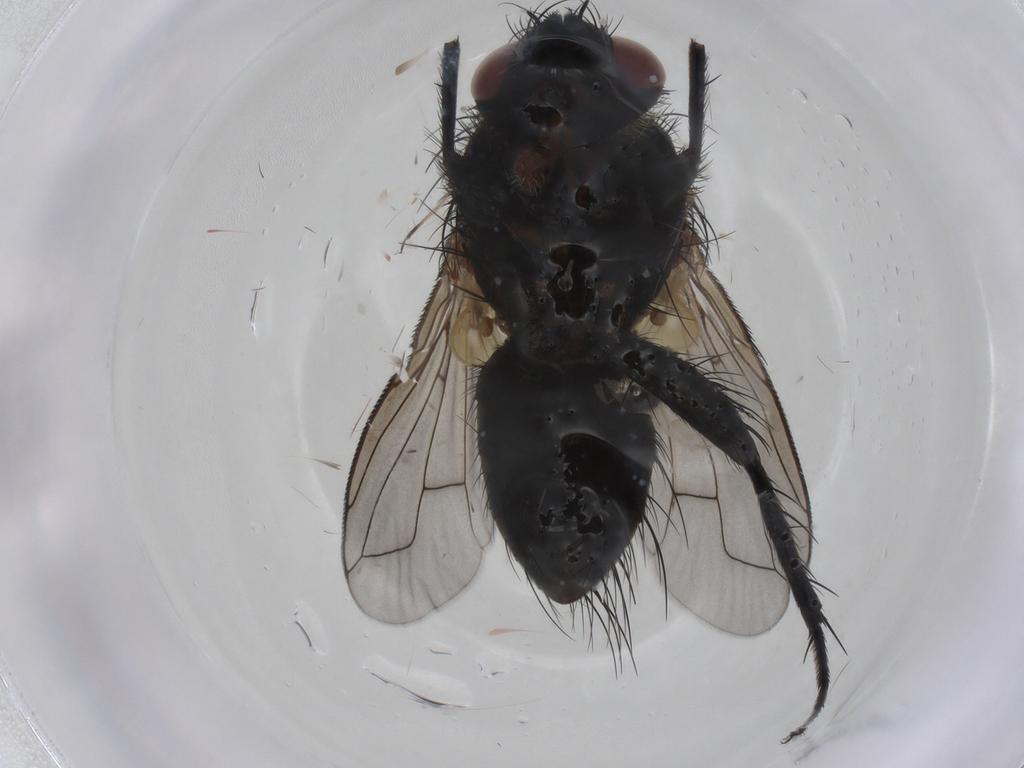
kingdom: Animalia
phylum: Arthropoda
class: Insecta
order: Diptera
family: Tachinidae
